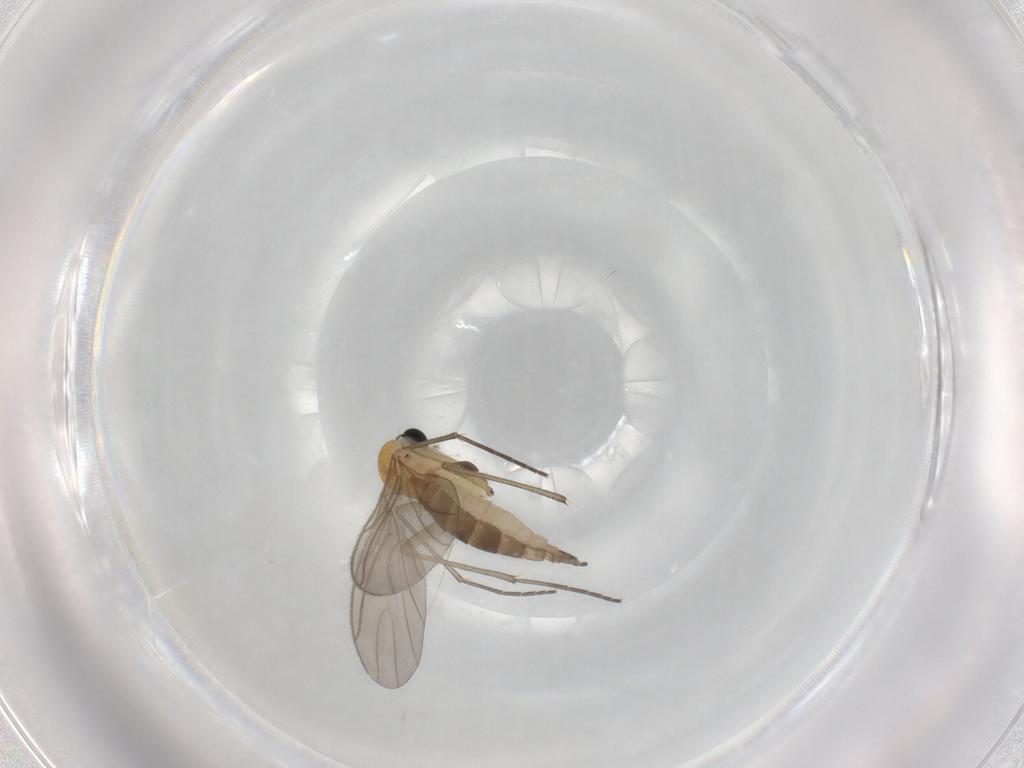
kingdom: Animalia
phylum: Arthropoda
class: Insecta
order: Diptera
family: Sciaridae
